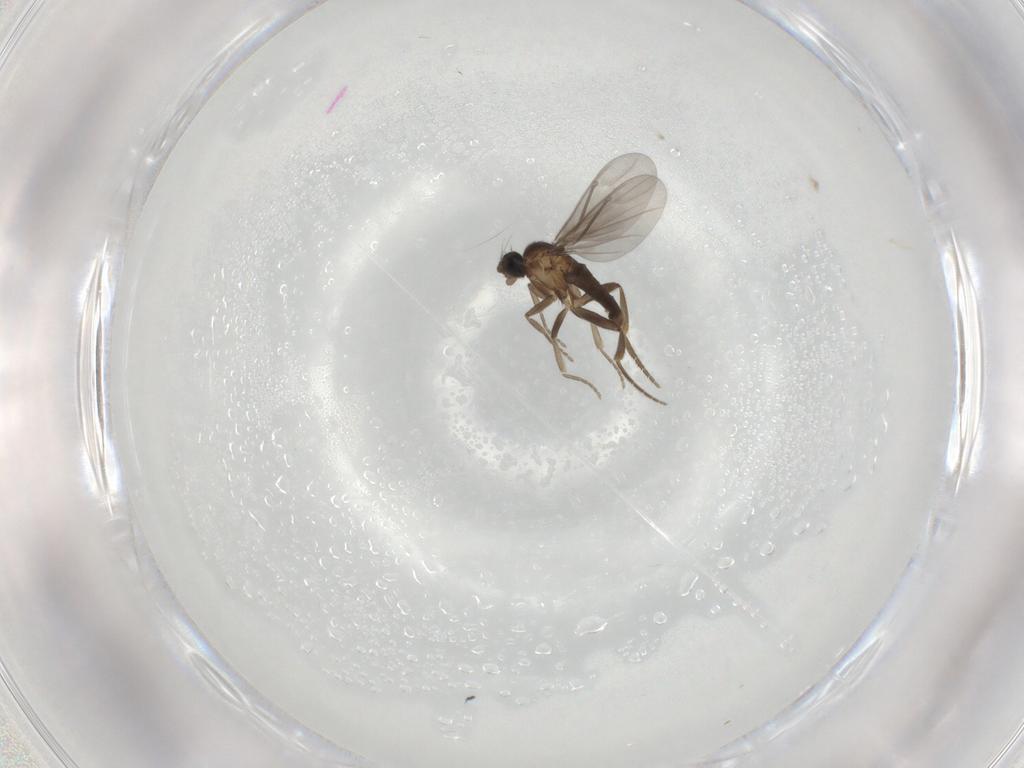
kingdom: Animalia
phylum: Arthropoda
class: Insecta
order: Diptera
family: Phoridae
